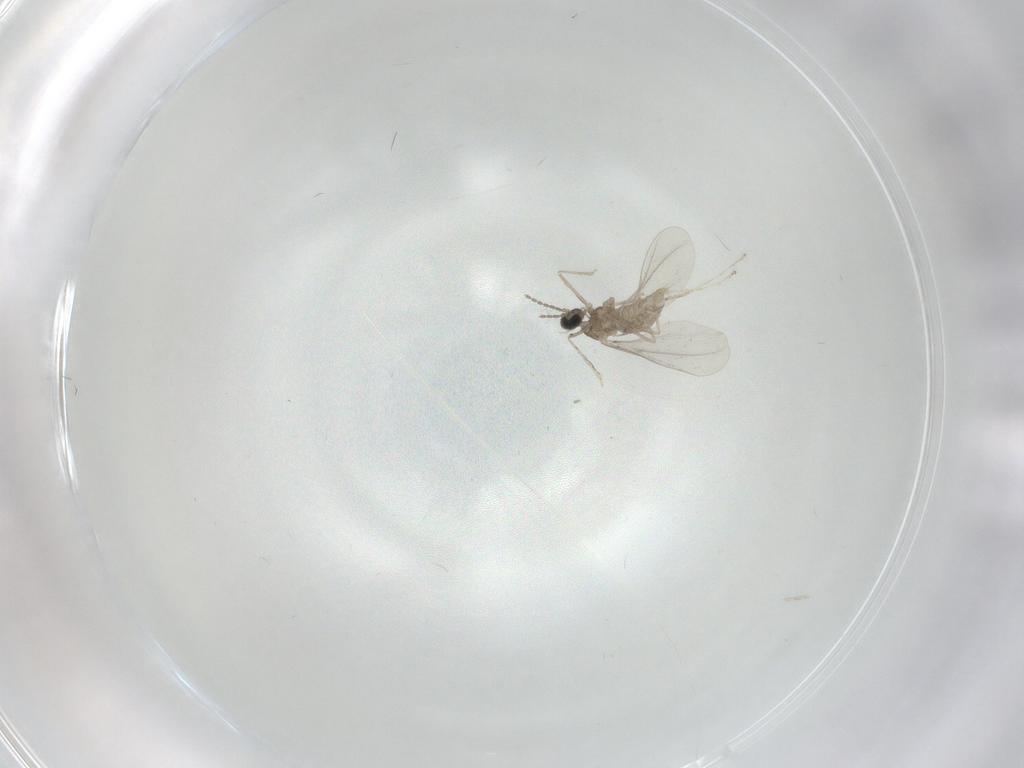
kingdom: Animalia
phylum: Arthropoda
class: Insecta
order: Diptera
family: Cecidomyiidae
